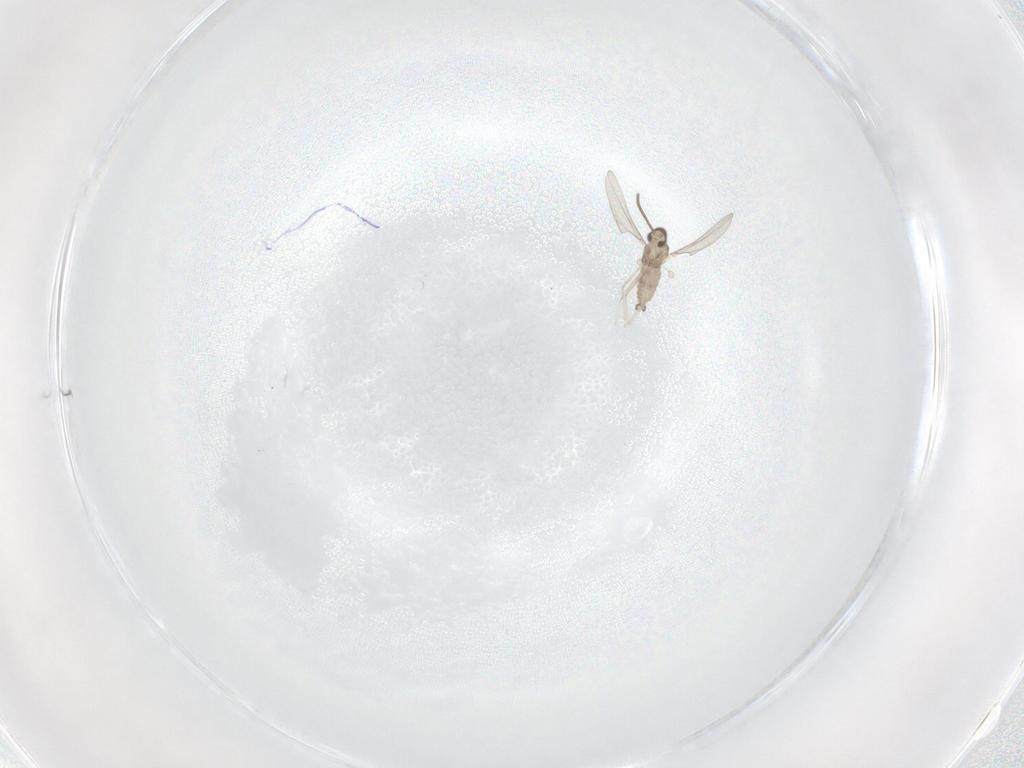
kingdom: Animalia
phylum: Arthropoda
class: Insecta
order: Diptera
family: Cecidomyiidae
